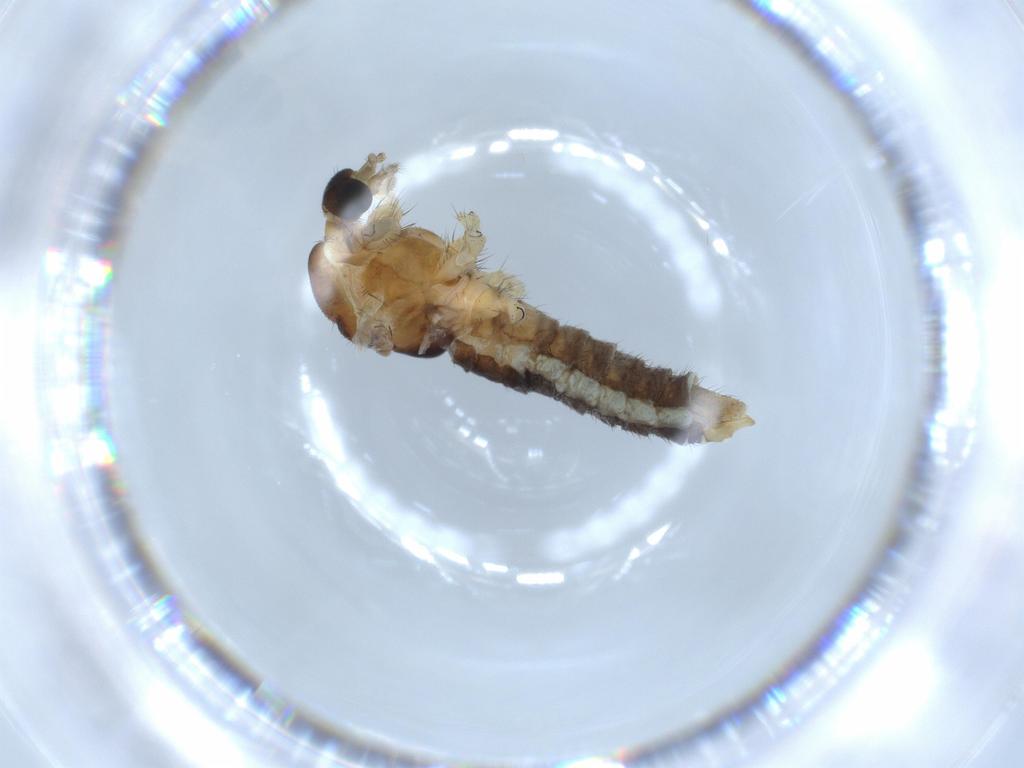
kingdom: Animalia
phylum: Arthropoda
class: Insecta
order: Diptera
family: Limoniidae
